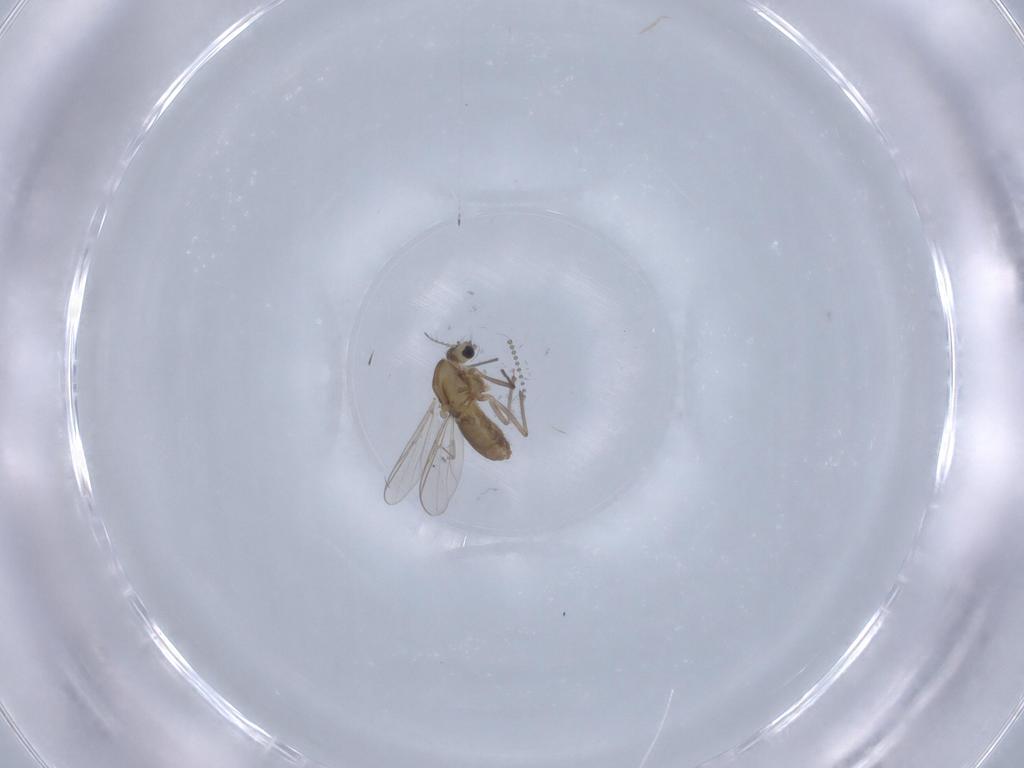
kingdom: Animalia
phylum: Arthropoda
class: Insecta
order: Diptera
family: Chironomidae
